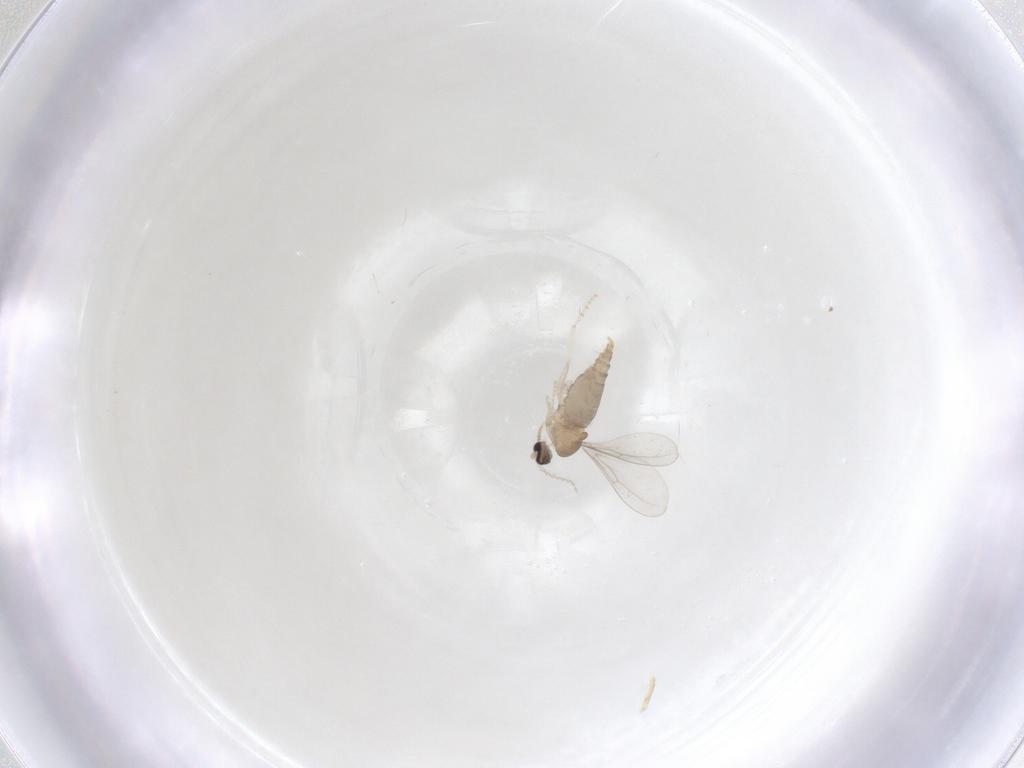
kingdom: Animalia
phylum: Arthropoda
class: Insecta
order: Diptera
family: Cecidomyiidae
